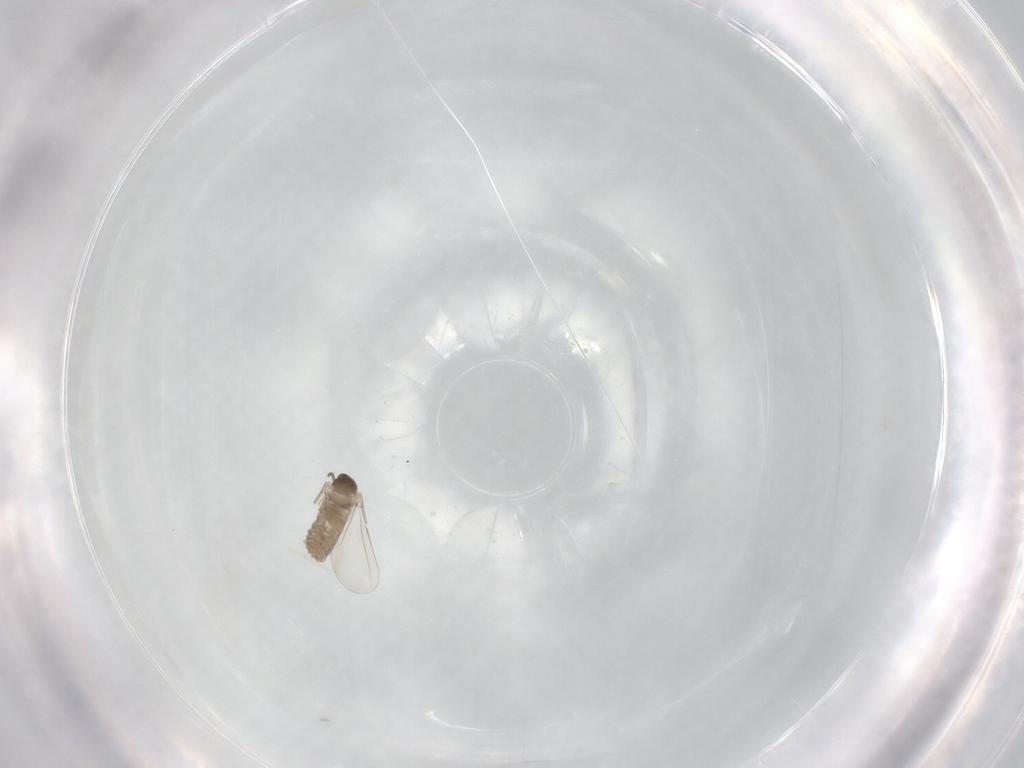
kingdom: Animalia
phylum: Arthropoda
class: Insecta
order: Diptera
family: Cecidomyiidae
